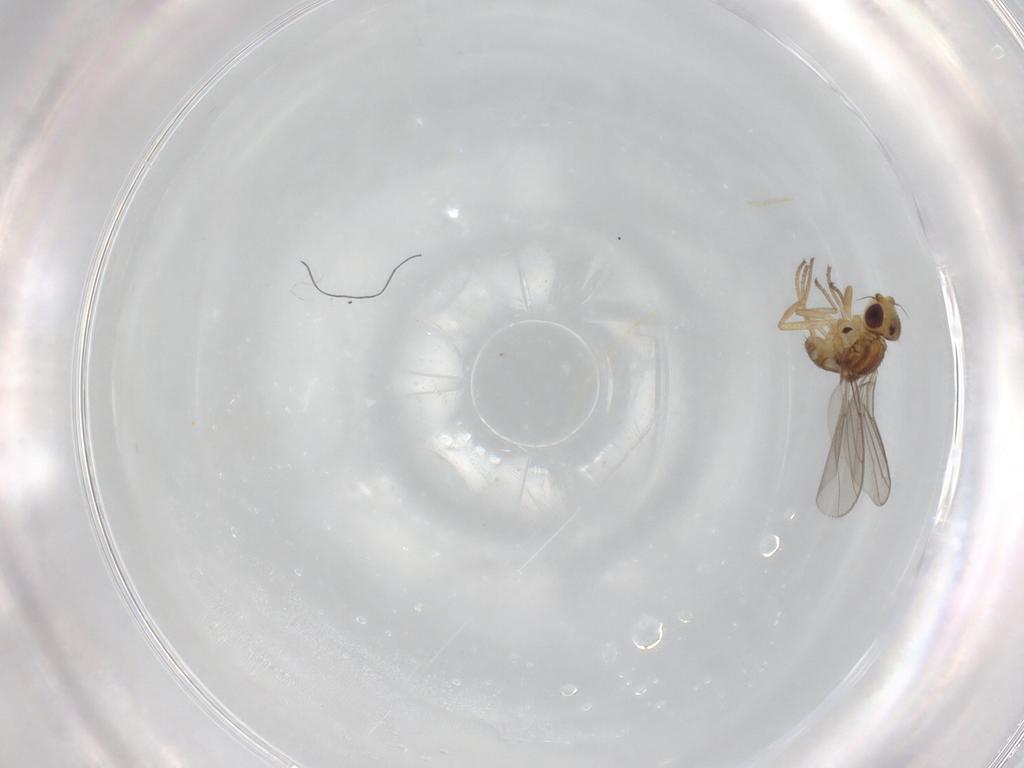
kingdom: Animalia
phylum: Arthropoda
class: Insecta
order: Diptera
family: Chloropidae
